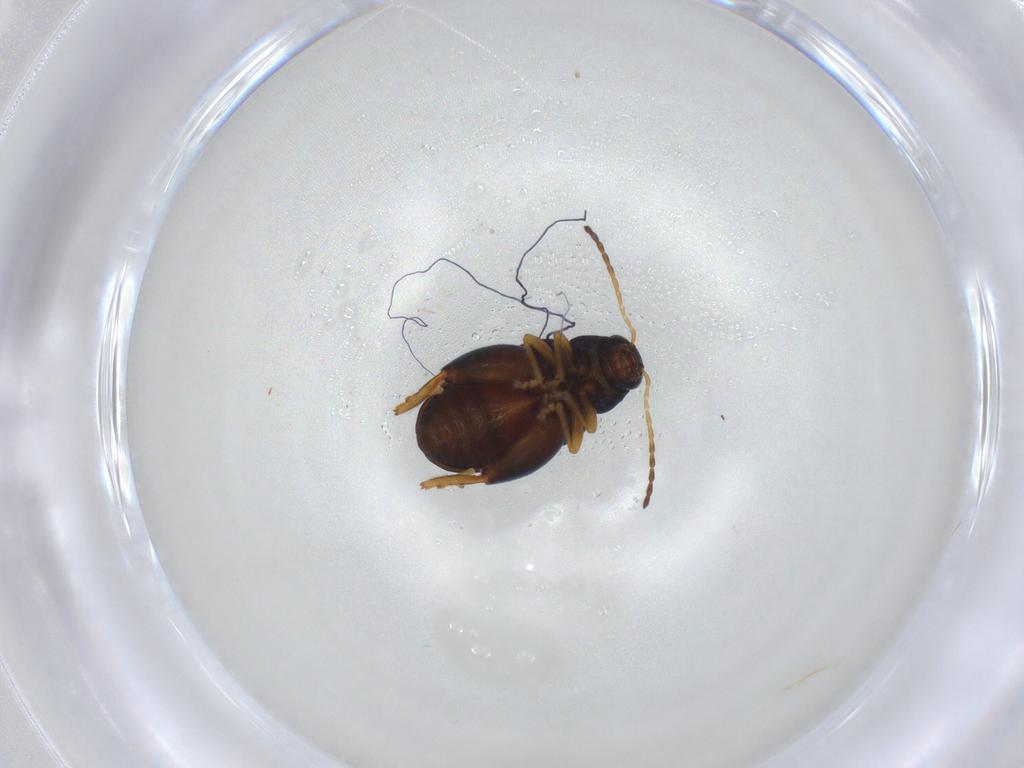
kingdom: Animalia
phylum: Arthropoda
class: Insecta
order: Coleoptera
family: Chrysomelidae
